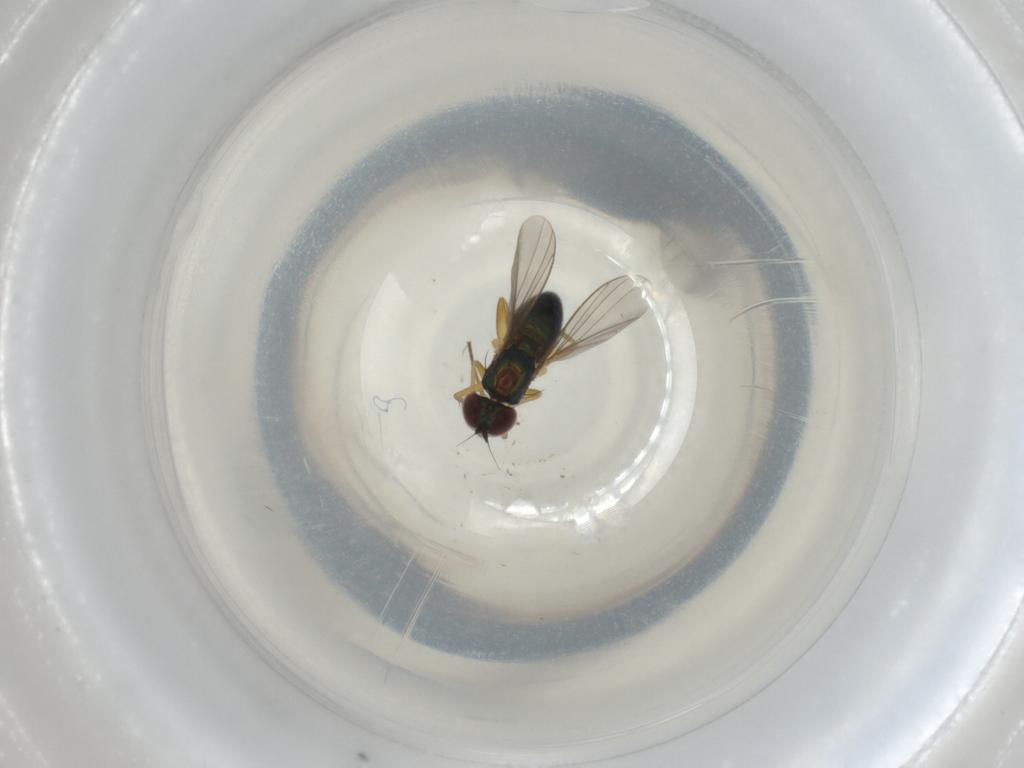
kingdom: Animalia
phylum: Arthropoda
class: Insecta
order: Diptera
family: Dolichopodidae
